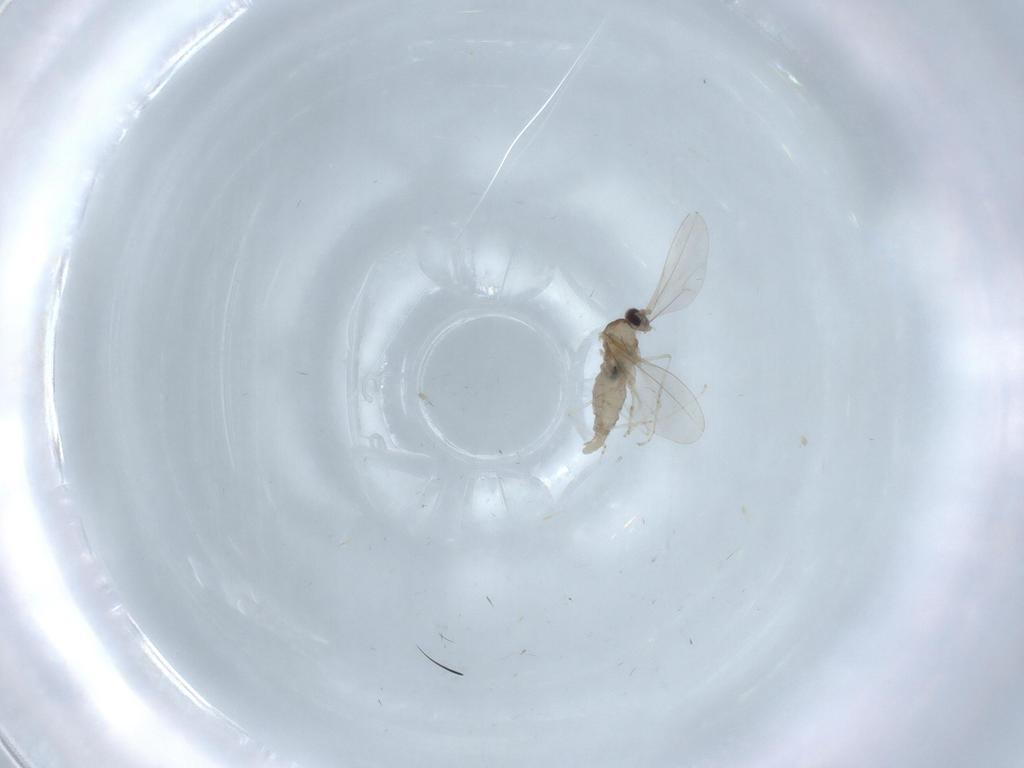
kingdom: Animalia
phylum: Arthropoda
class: Insecta
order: Diptera
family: Cecidomyiidae
